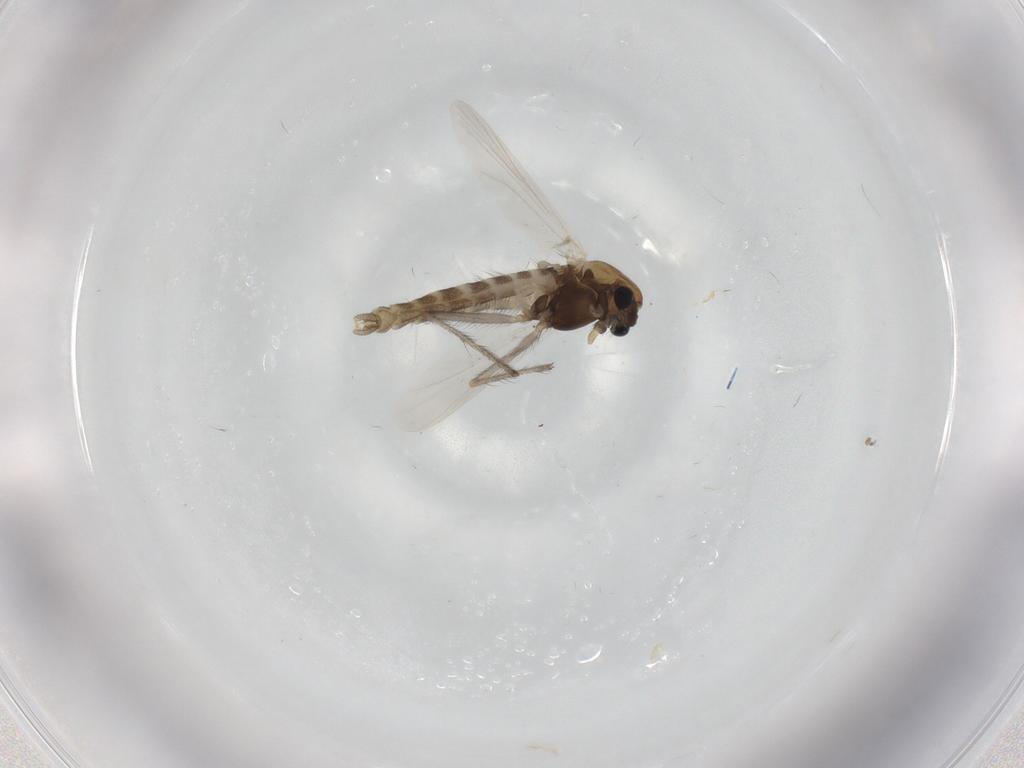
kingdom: Animalia
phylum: Arthropoda
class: Insecta
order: Diptera
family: Chironomidae
